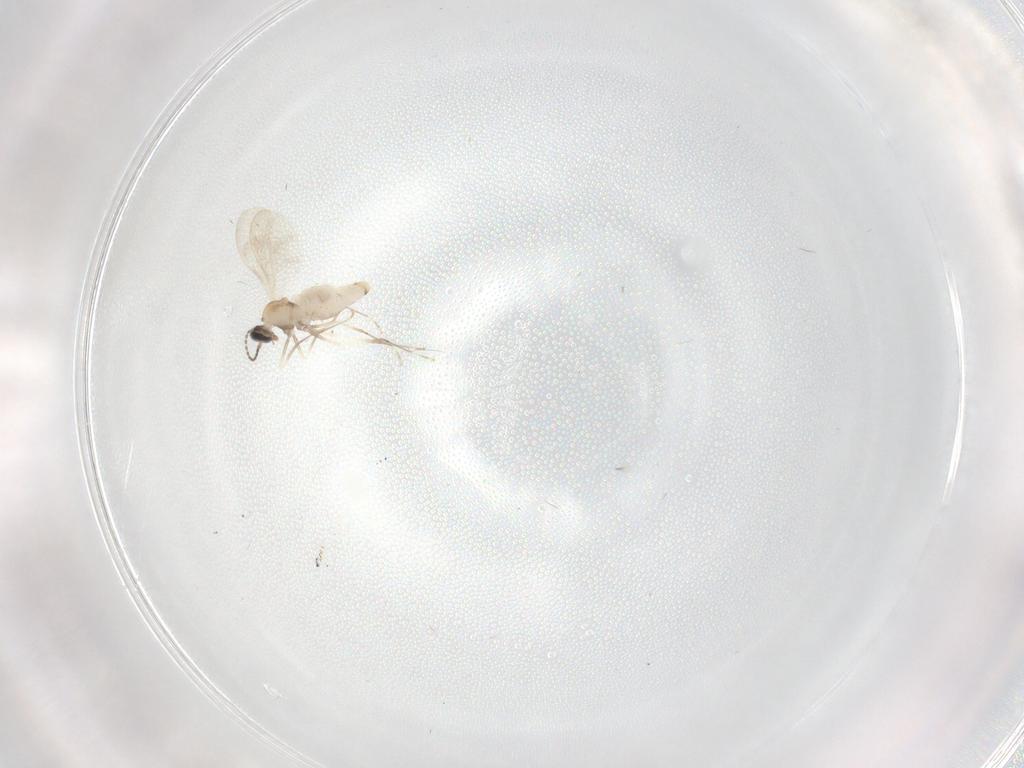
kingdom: Animalia
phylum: Arthropoda
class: Insecta
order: Diptera
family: Cecidomyiidae
